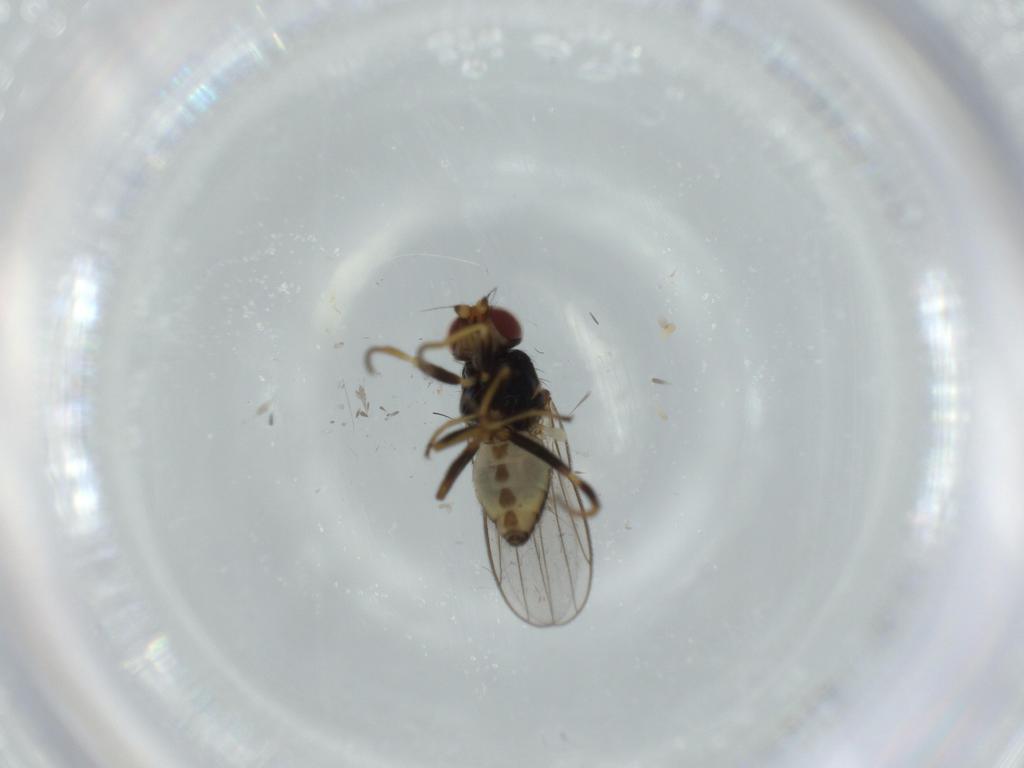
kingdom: Animalia
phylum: Arthropoda
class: Insecta
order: Diptera
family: Chloropidae
